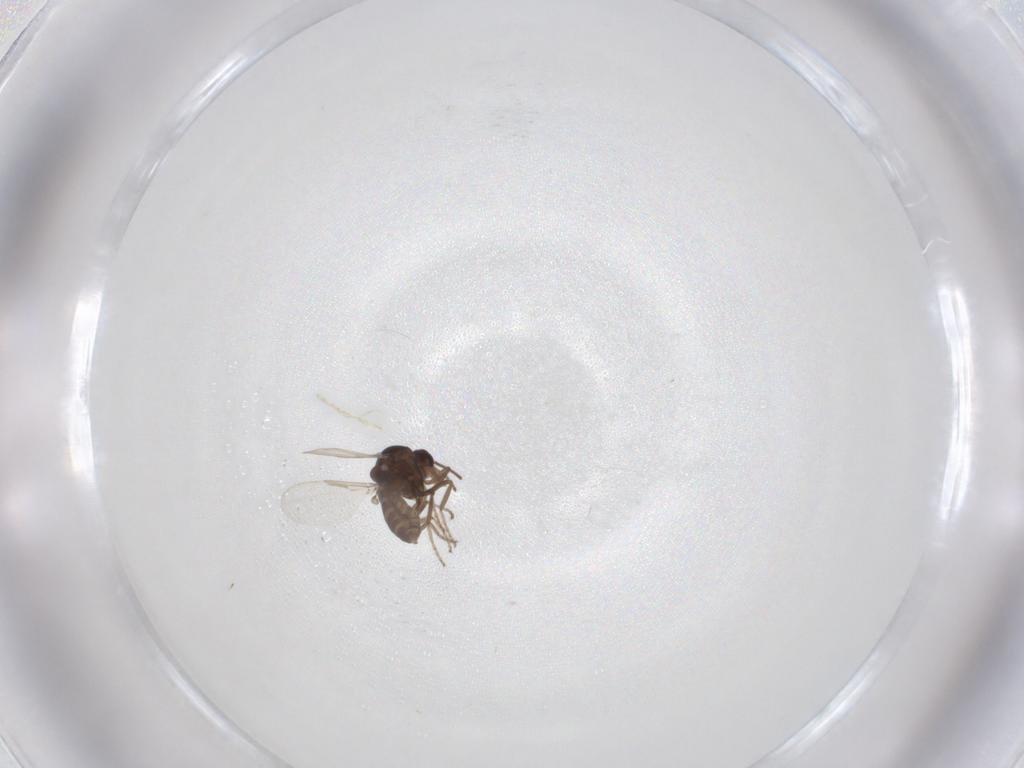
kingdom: Animalia
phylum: Arthropoda
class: Insecta
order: Diptera
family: Ceratopogonidae
